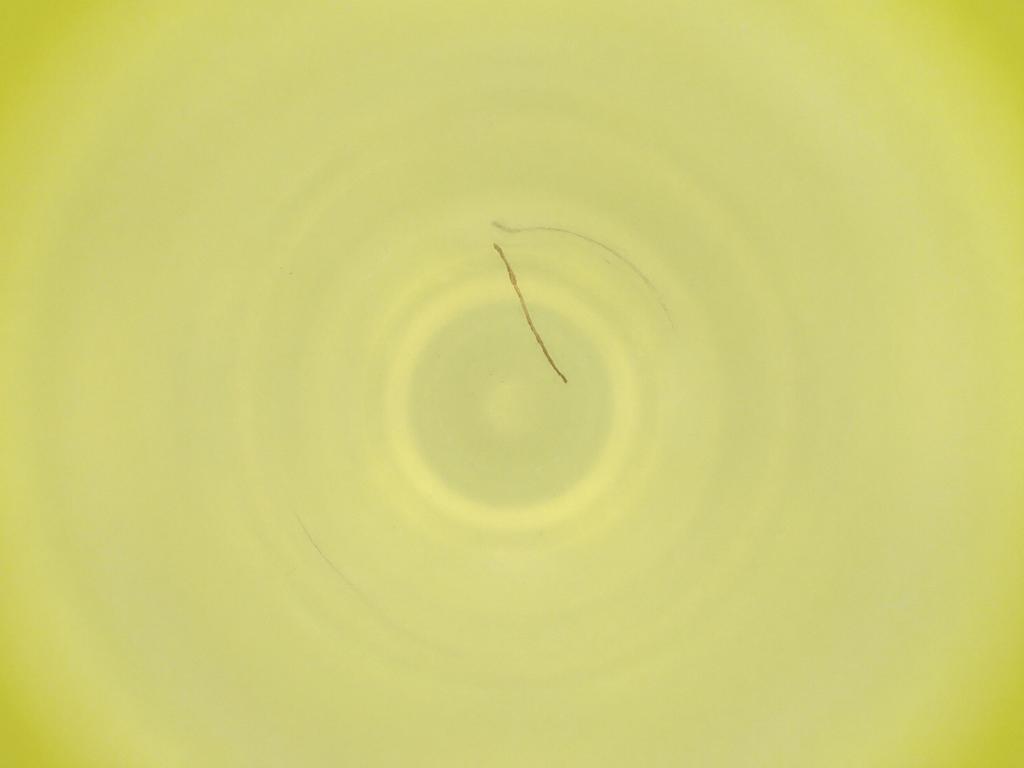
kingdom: Animalia
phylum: Arthropoda
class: Insecta
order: Diptera
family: Cecidomyiidae
